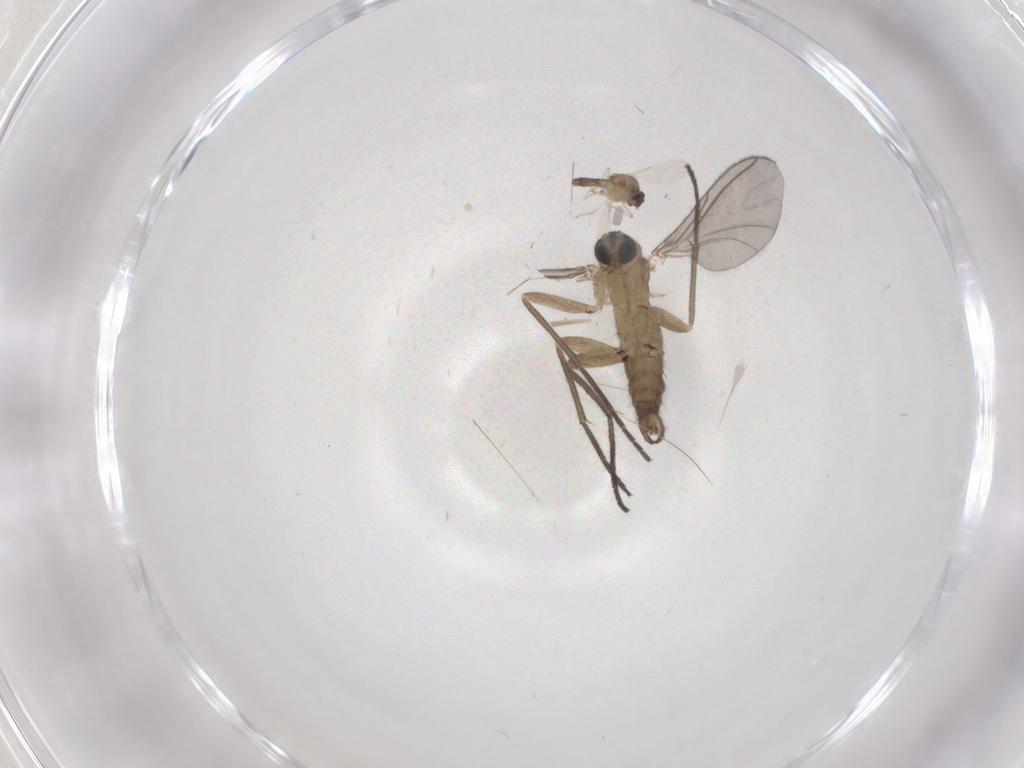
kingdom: Animalia
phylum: Arthropoda
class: Insecta
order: Diptera
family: Sciaridae
